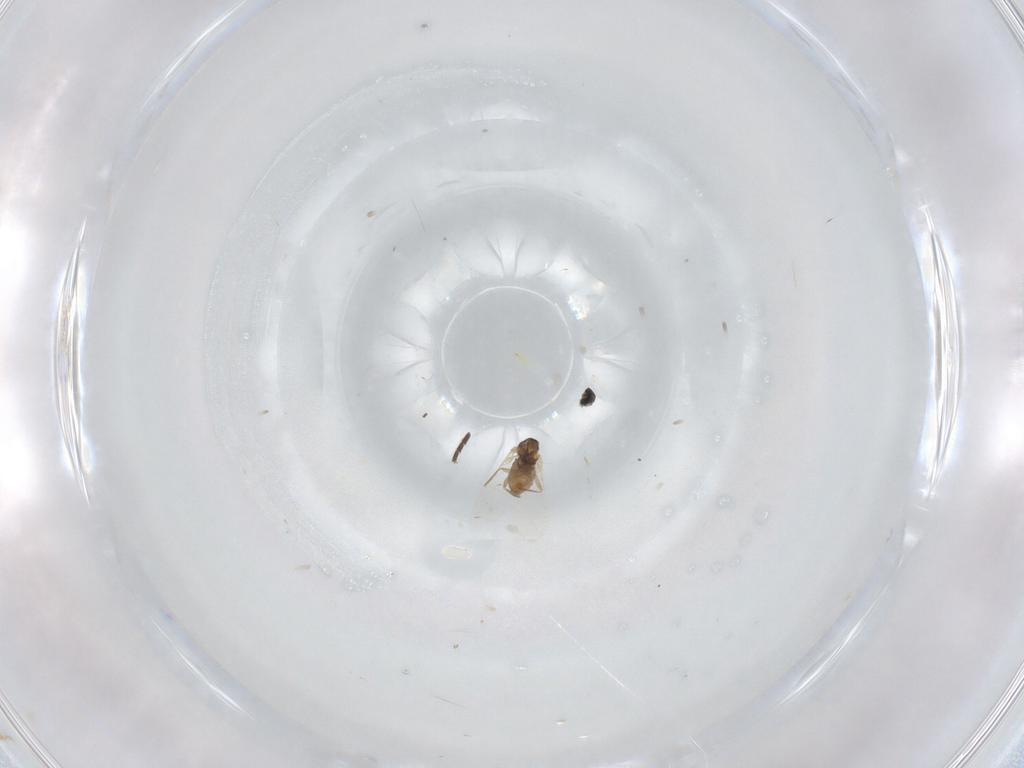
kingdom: Animalia
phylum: Arthropoda
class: Insecta
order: Diptera
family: Cecidomyiidae
